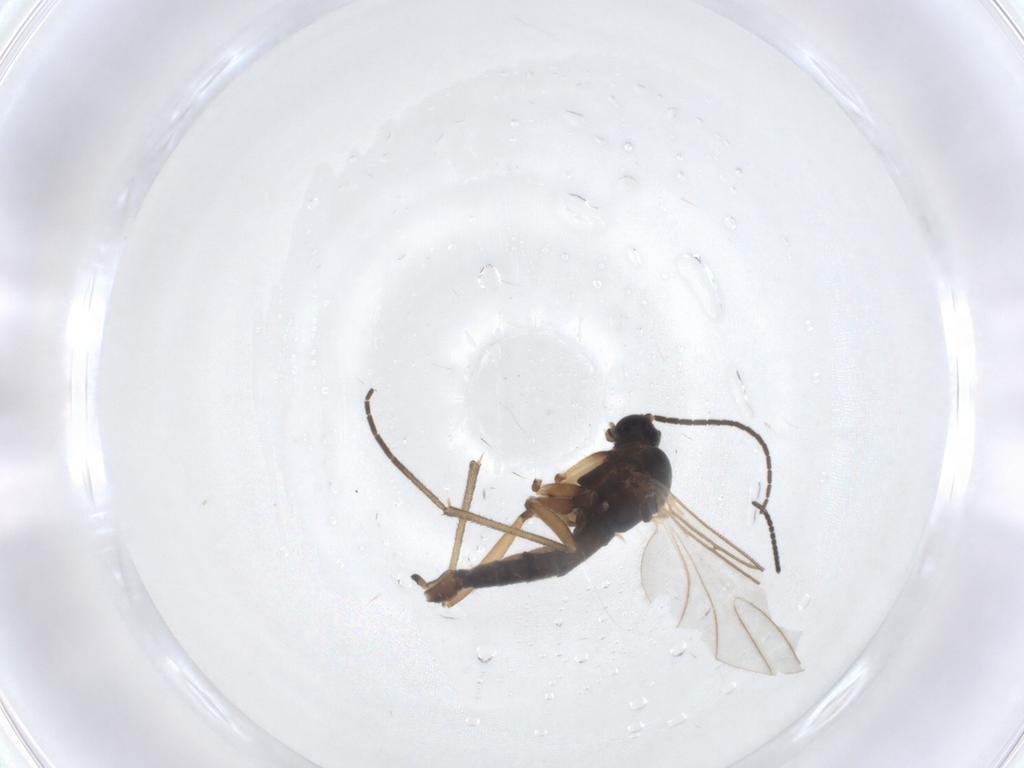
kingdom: Animalia
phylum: Arthropoda
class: Insecta
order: Diptera
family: Sciaridae
